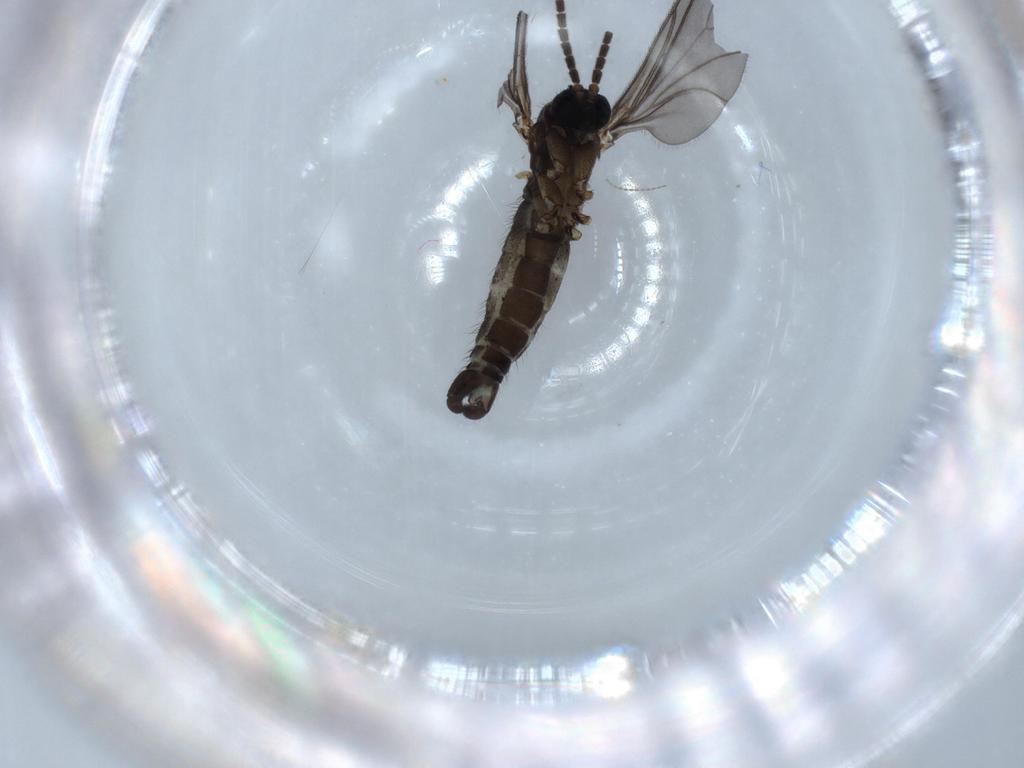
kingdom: Animalia
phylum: Arthropoda
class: Insecta
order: Diptera
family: Sciaridae
